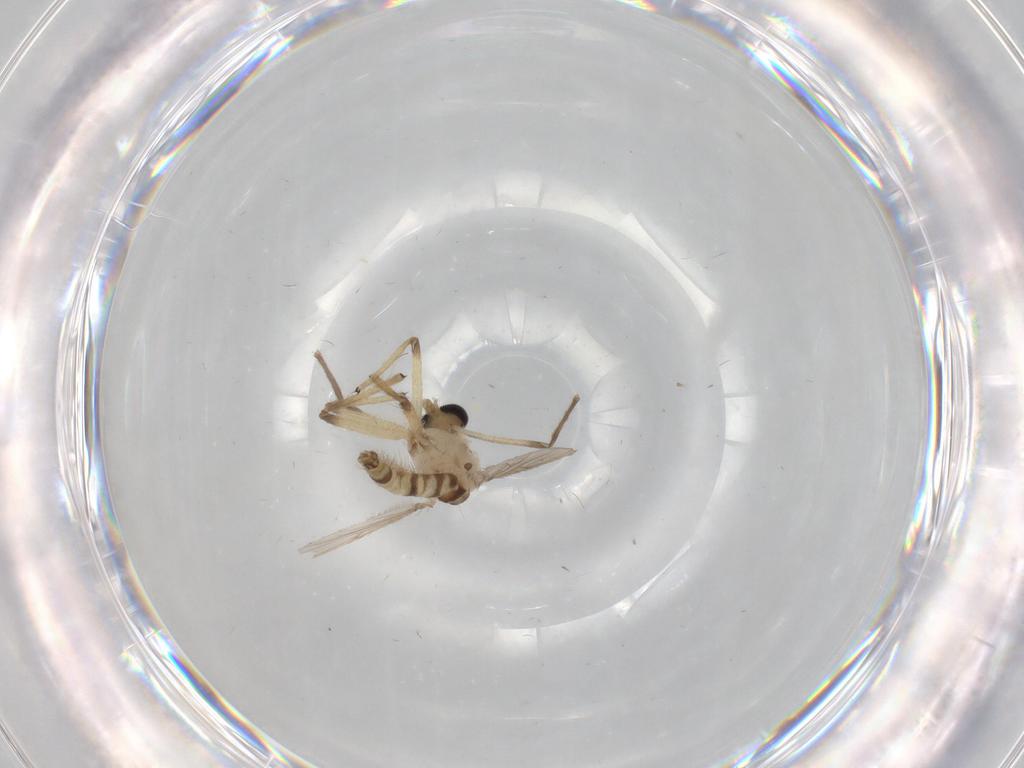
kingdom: Animalia
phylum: Arthropoda
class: Insecta
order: Diptera
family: Chironomidae
